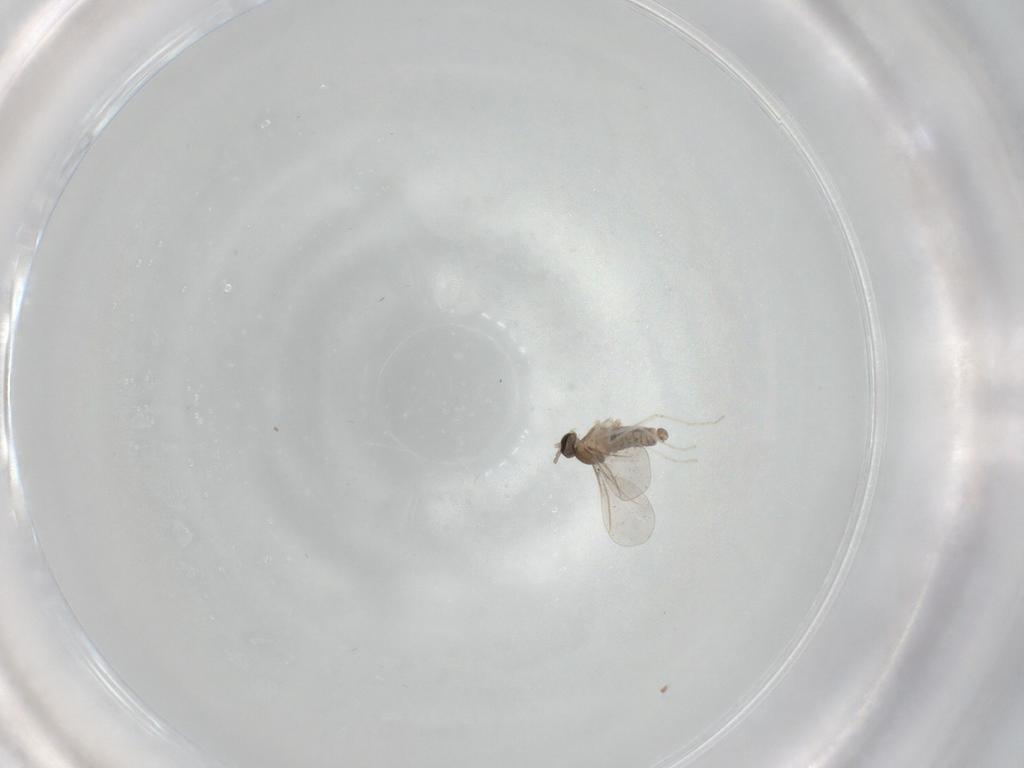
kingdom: Animalia
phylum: Arthropoda
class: Insecta
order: Diptera
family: Cecidomyiidae
